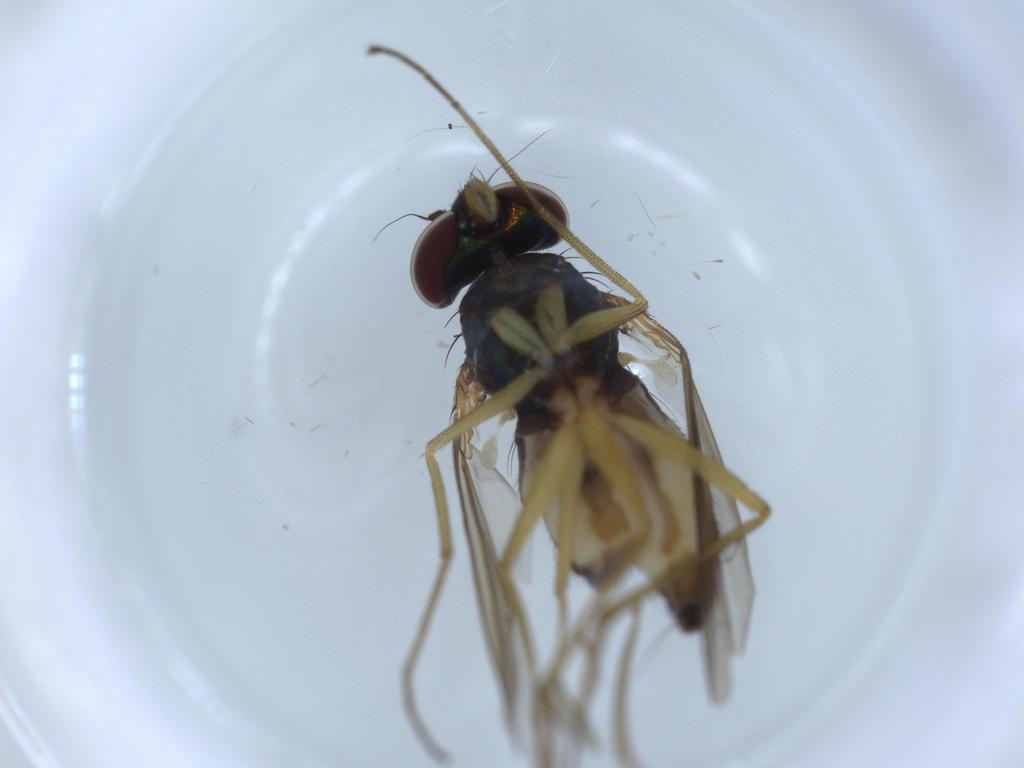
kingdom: Animalia
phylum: Arthropoda
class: Insecta
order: Diptera
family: Dolichopodidae
